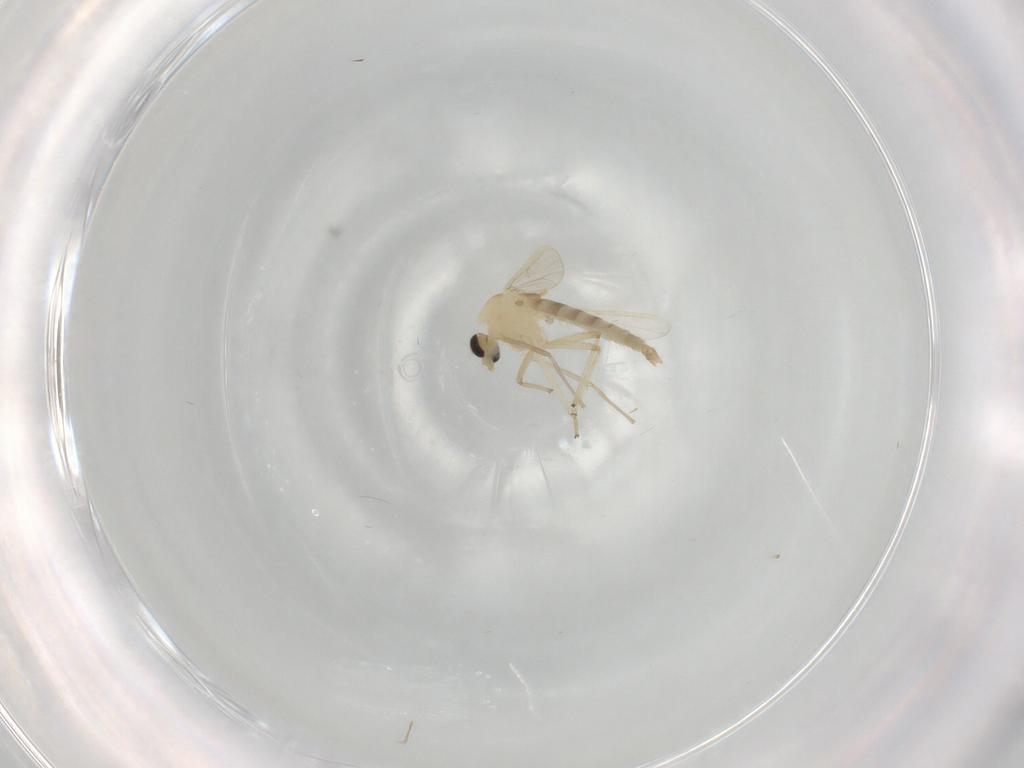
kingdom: Animalia
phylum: Arthropoda
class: Insecta
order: Diptera
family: Chironomidae
